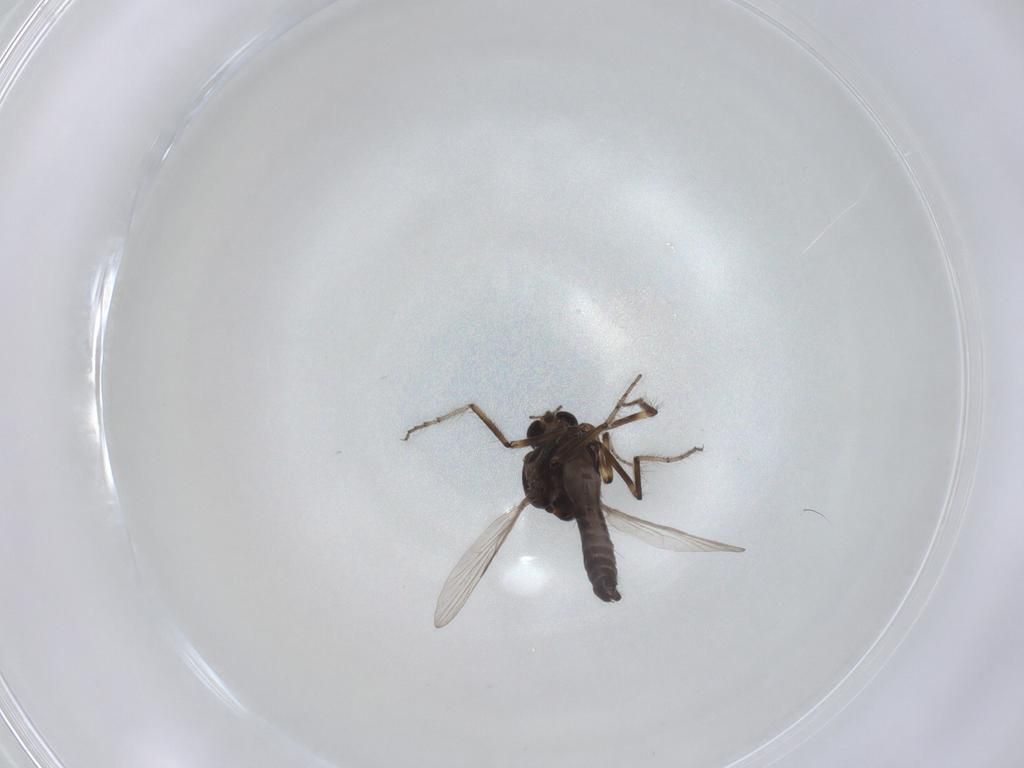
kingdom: Animalia
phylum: Arthropoda
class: Insecta
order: Diptera
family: Ceratopogonidae
